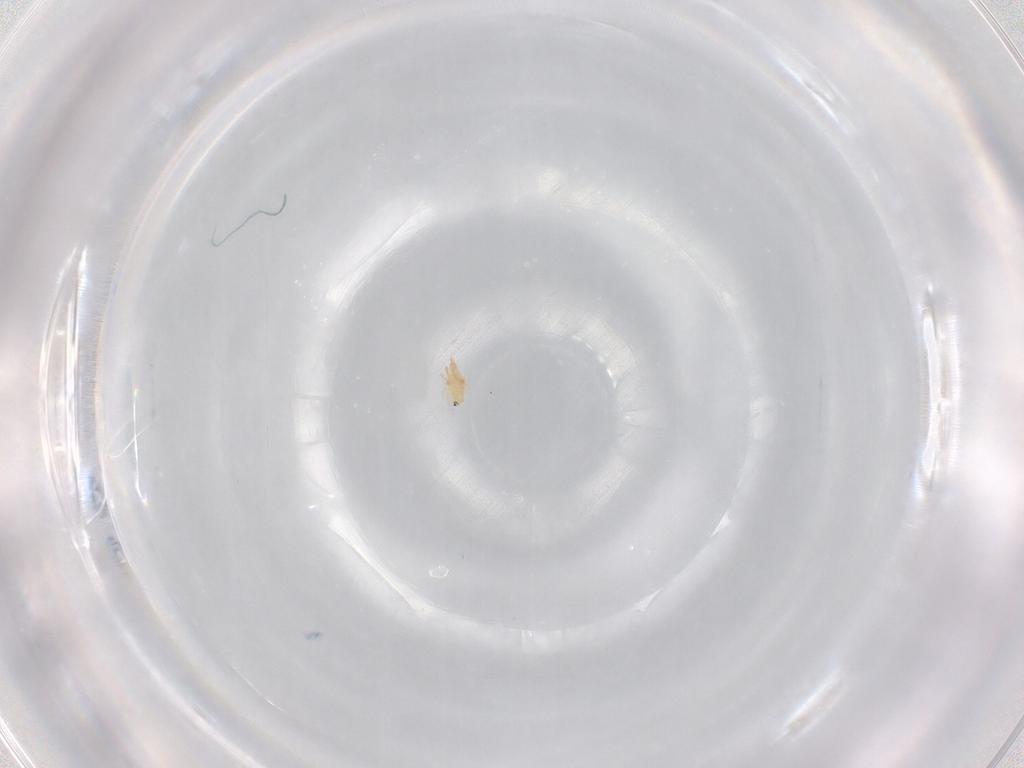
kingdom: Animalia
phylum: Arthropoda
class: Arachnida
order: Trombidiformes
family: Cunaxidae
